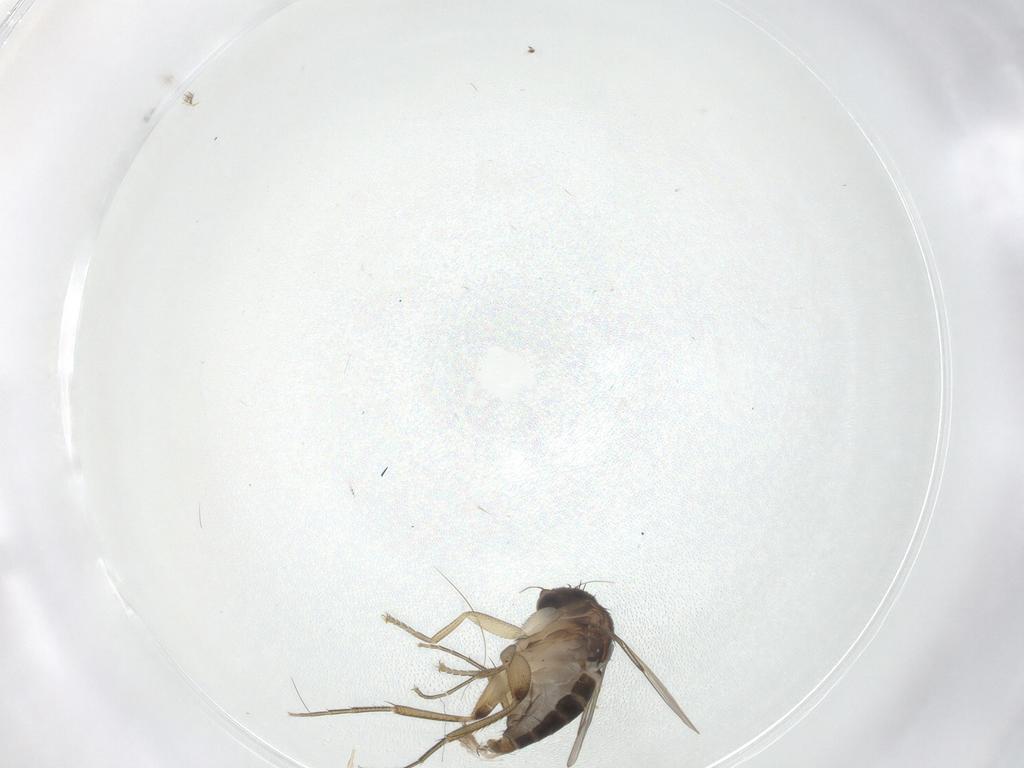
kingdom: Animalia
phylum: Arthropoda
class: Insecta
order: Diptera
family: Phoridae
